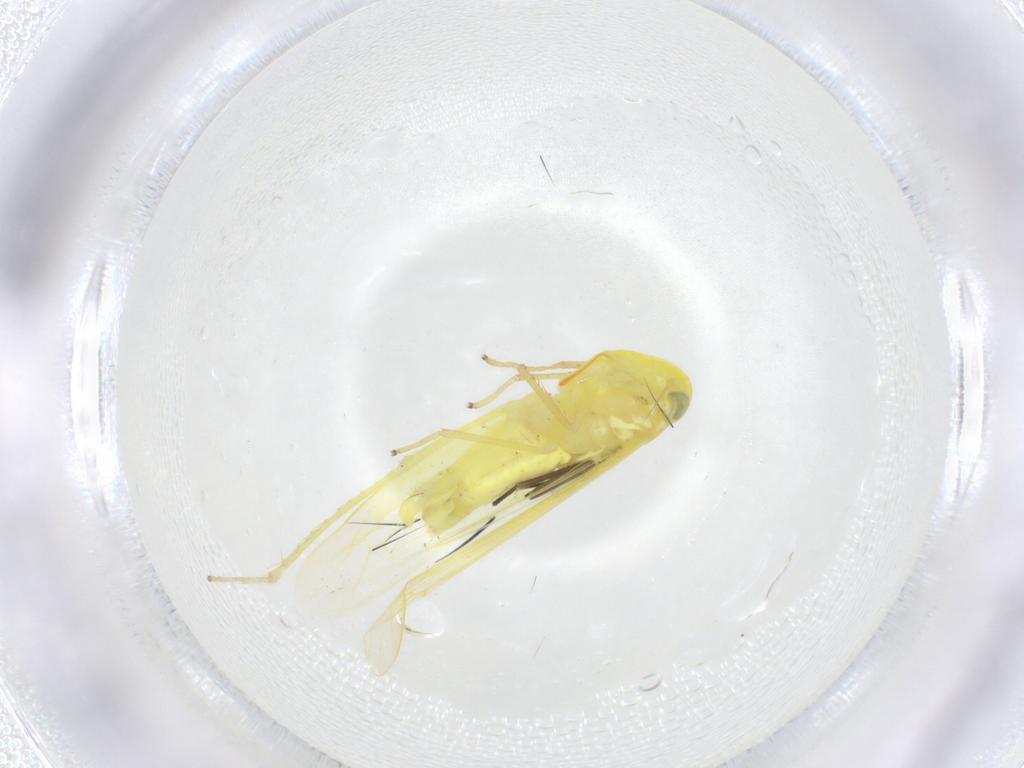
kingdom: Animalia
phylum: Arthropoda
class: Insecta
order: Hemiptera
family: Cicadellidae
